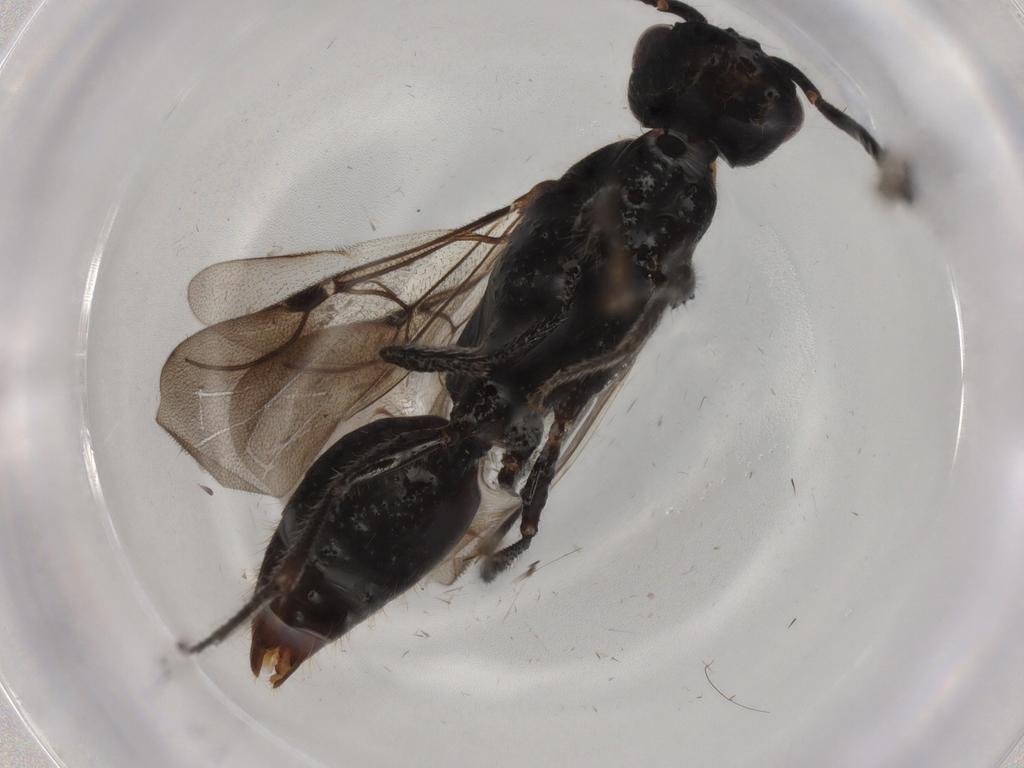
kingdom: Animalia
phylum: Arthropoda
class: Insecta
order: Hymenoptera
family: Bethylidae
